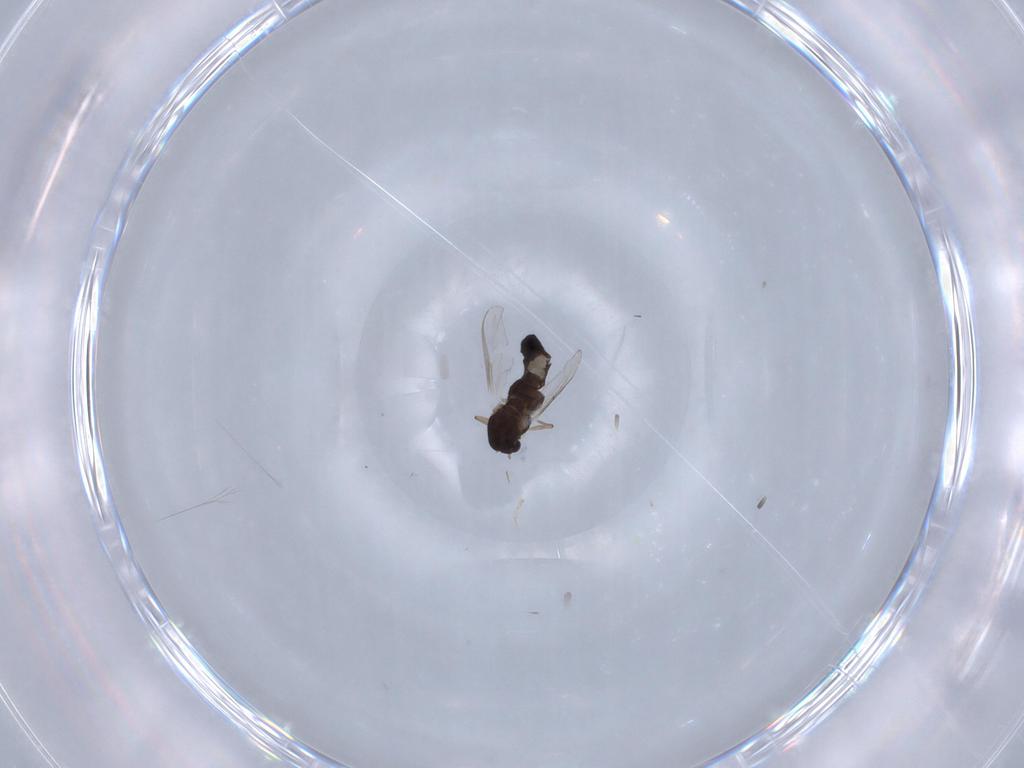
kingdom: Animalia
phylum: Arthropoda
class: Insecta
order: Diptera
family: Chironomidae
